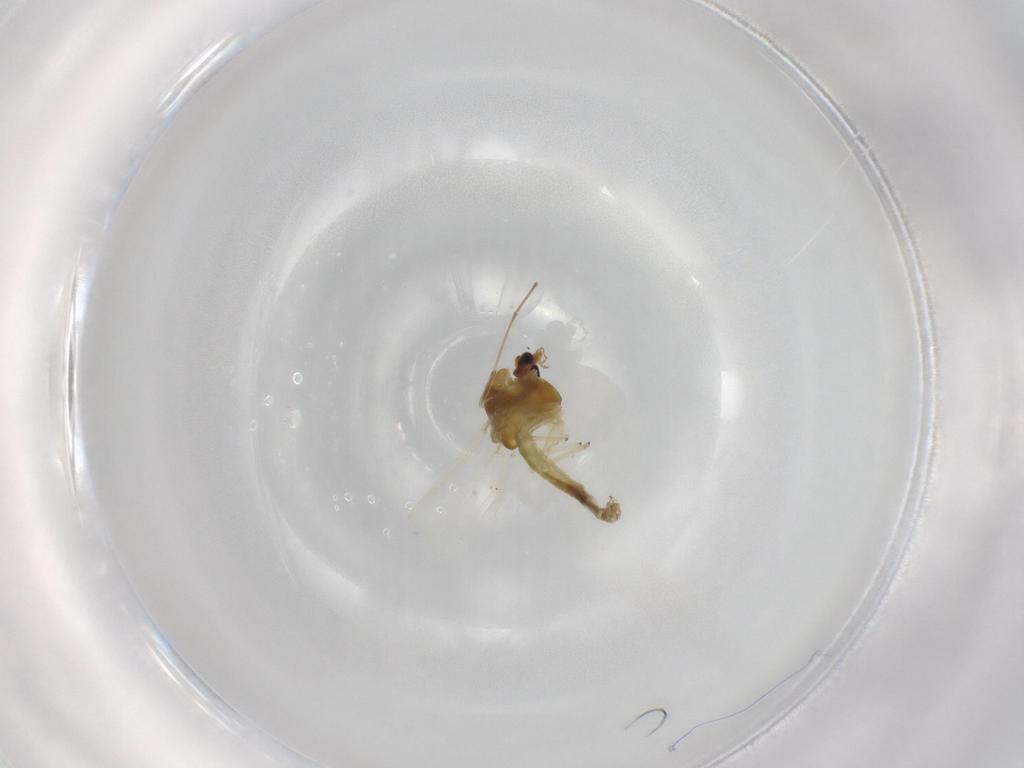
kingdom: Animalia
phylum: Arthropoda
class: Insecta
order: Diptera
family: Chironomidae
